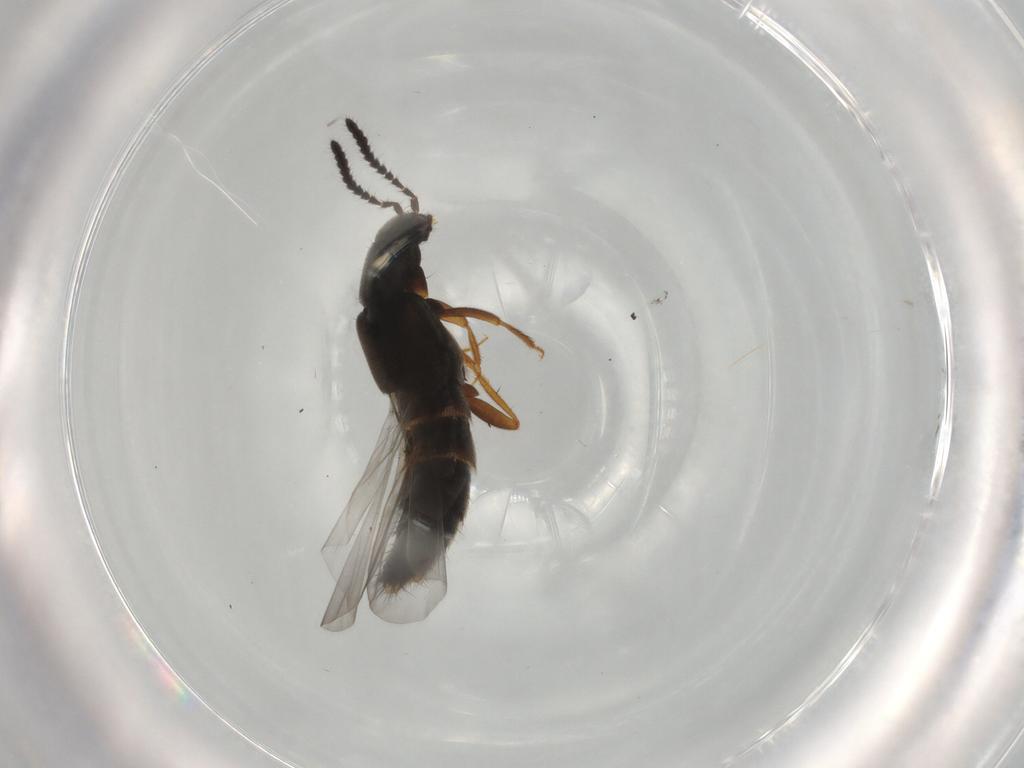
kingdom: Animalia
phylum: Arthropoda
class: Insecta
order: Coleoptera
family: Staphylinidae
